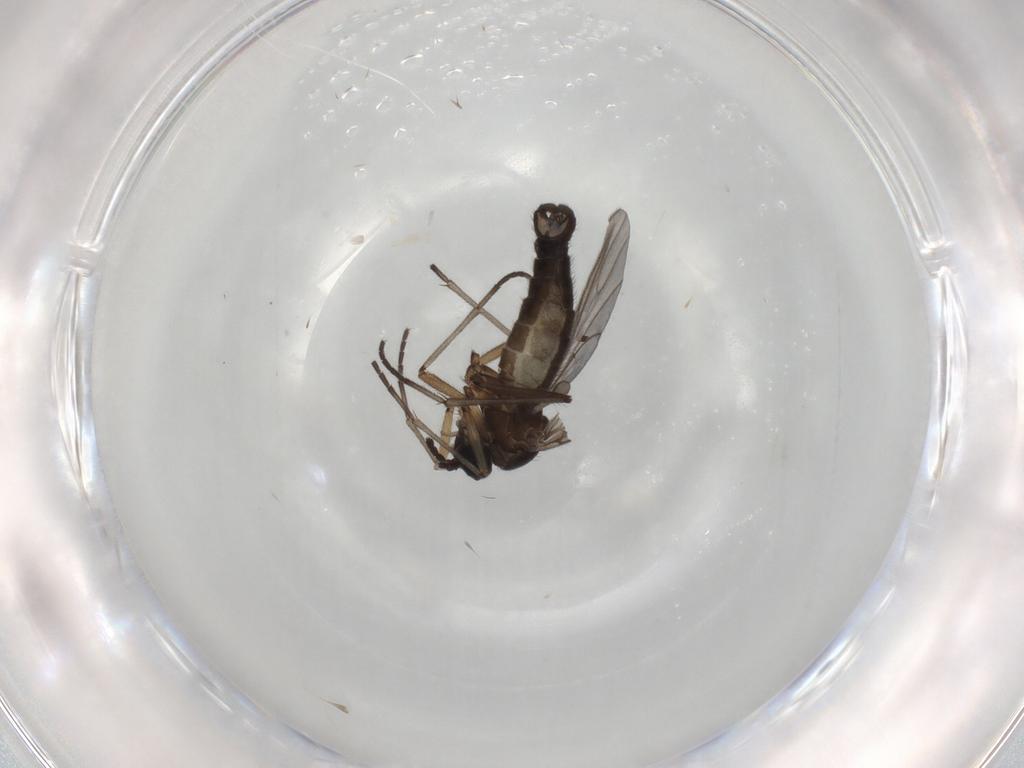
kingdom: Animalia
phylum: Arthropoda
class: Insecta
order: Diptera
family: Sciaridae
